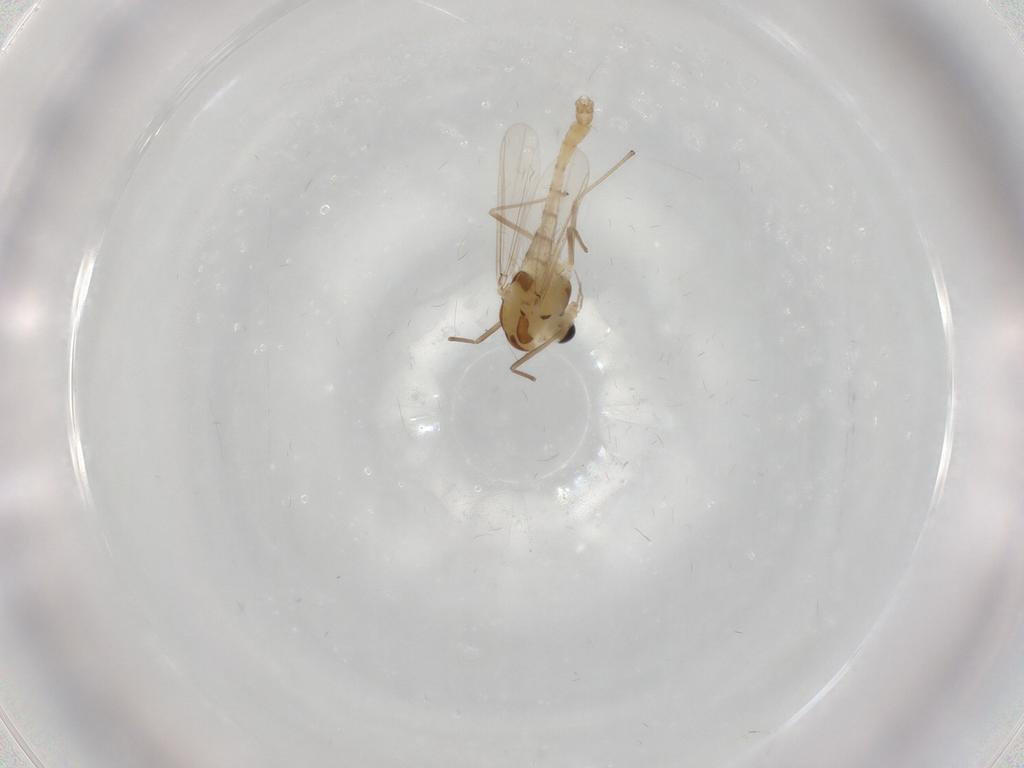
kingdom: Animalia
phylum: Arthropoda
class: Insecta
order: Diptera
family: Chironomidae
